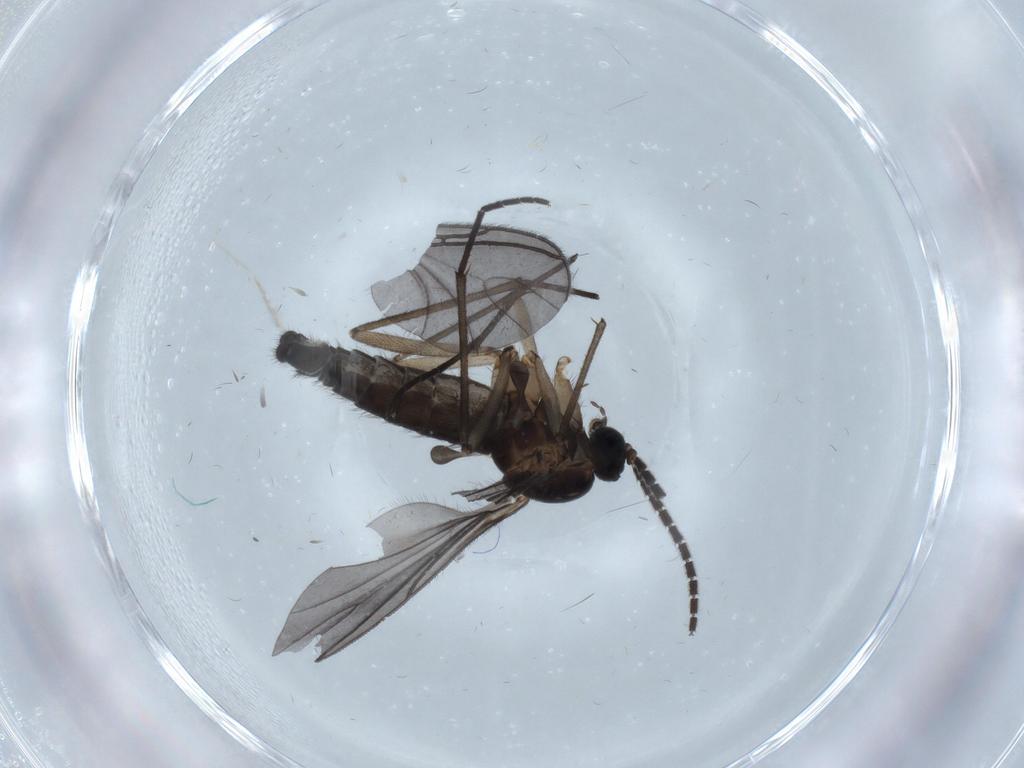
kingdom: Animalia
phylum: Arthropoda
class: Insecta
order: Diptera
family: Sciaridae
